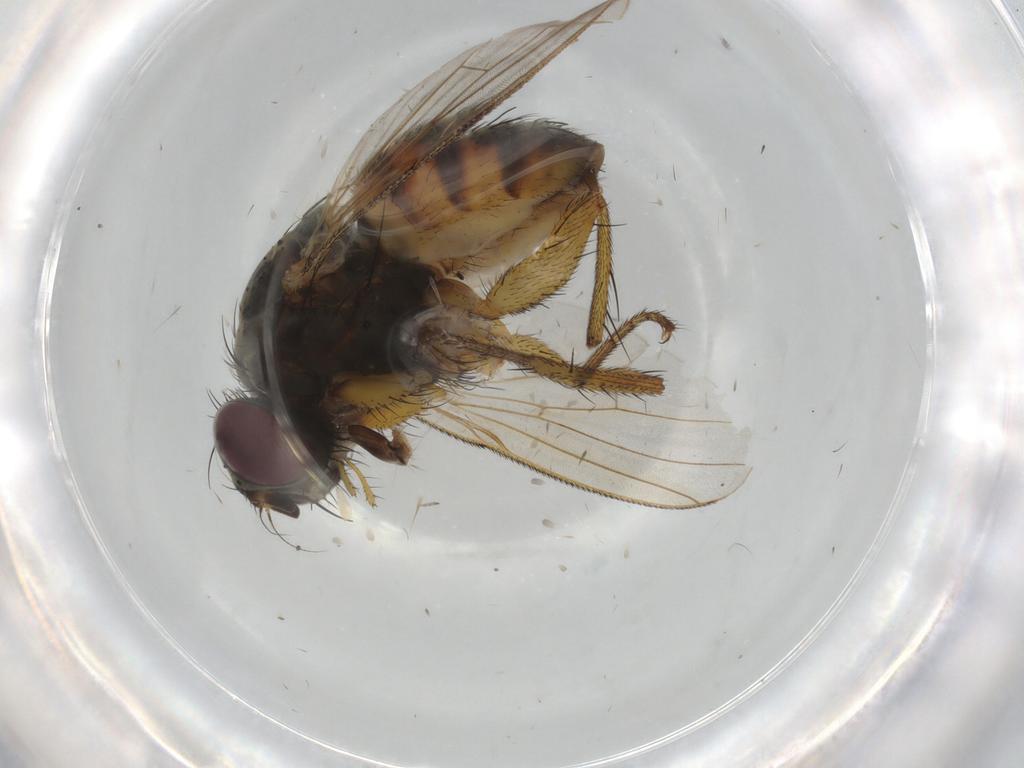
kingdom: Animalia
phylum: Arthropoda
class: Insecta
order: Diptera
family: Muscidae
